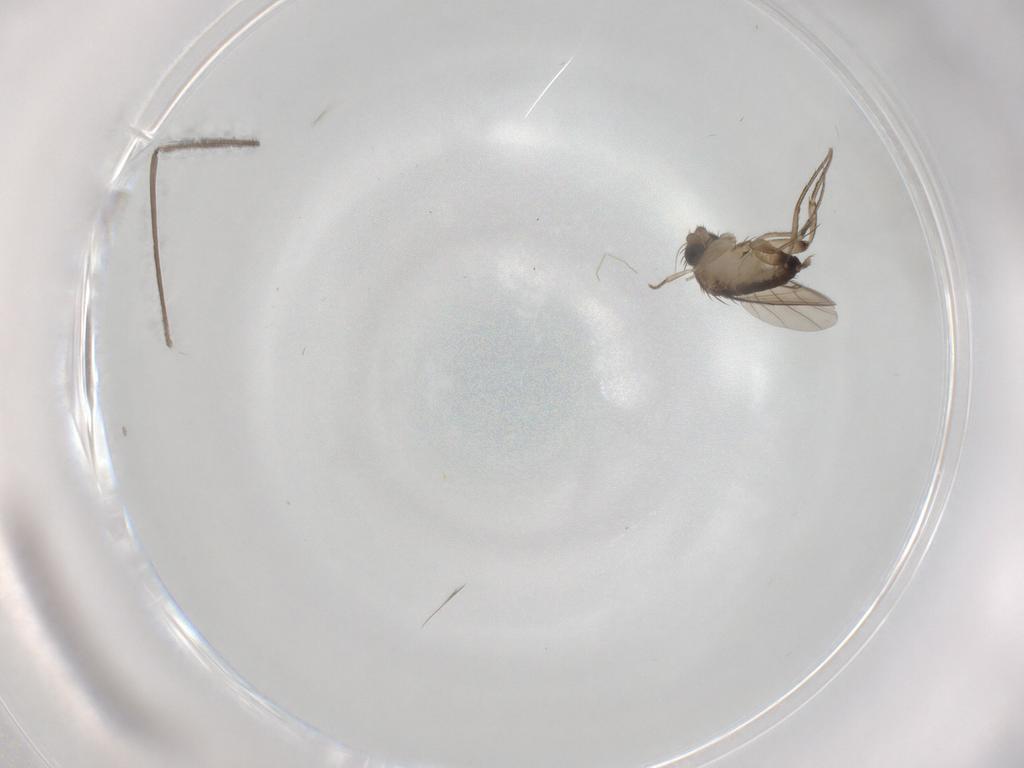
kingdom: Animalia
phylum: Arthropoda
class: Insecta
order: Diptera
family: Phoridae
